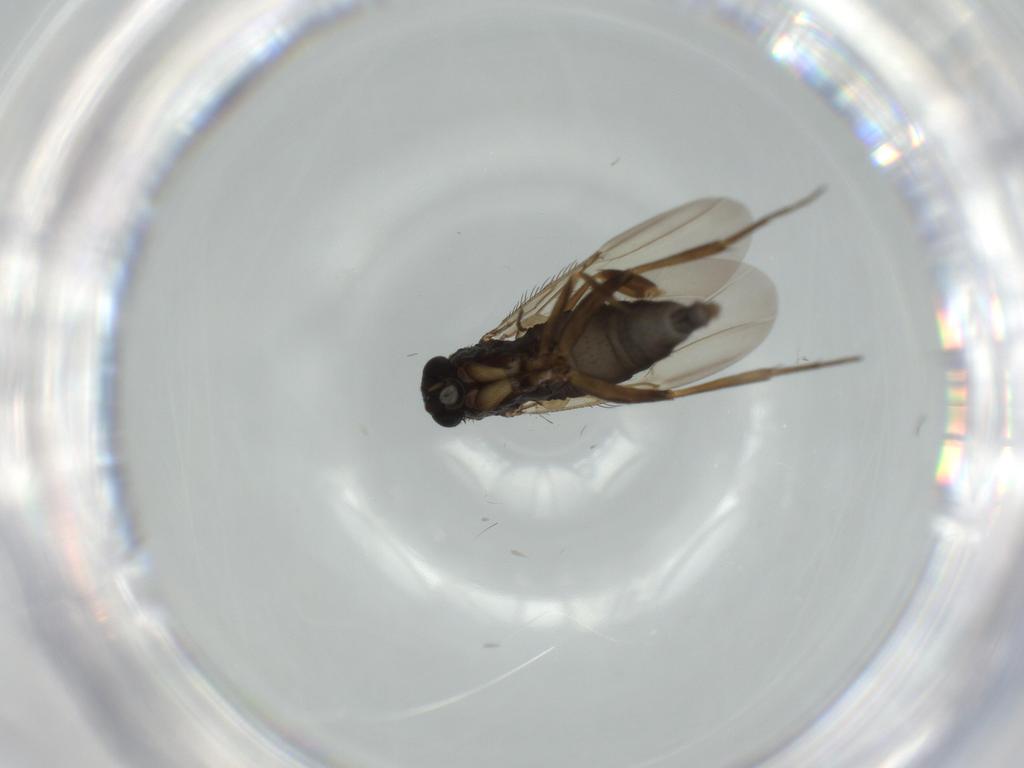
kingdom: Animalia
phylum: Arthropoda
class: Insecta
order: Diptera
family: Phoridae
